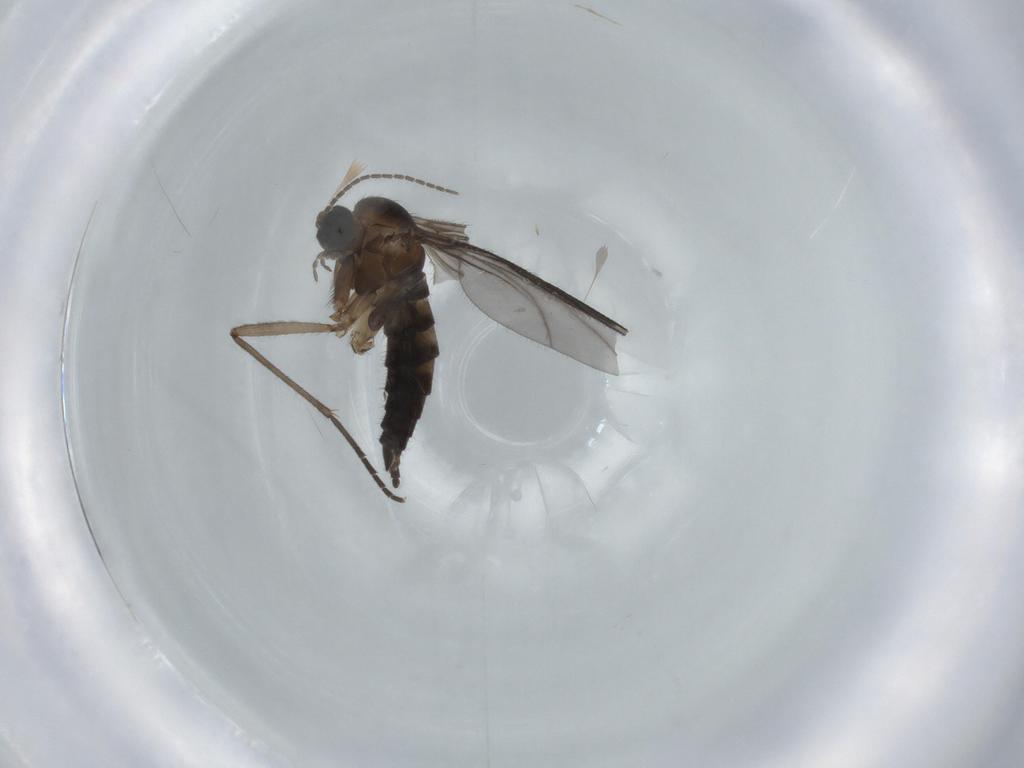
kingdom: Animalia
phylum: Arthropoda
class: Insecta
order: Diptera
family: Sciaridae
